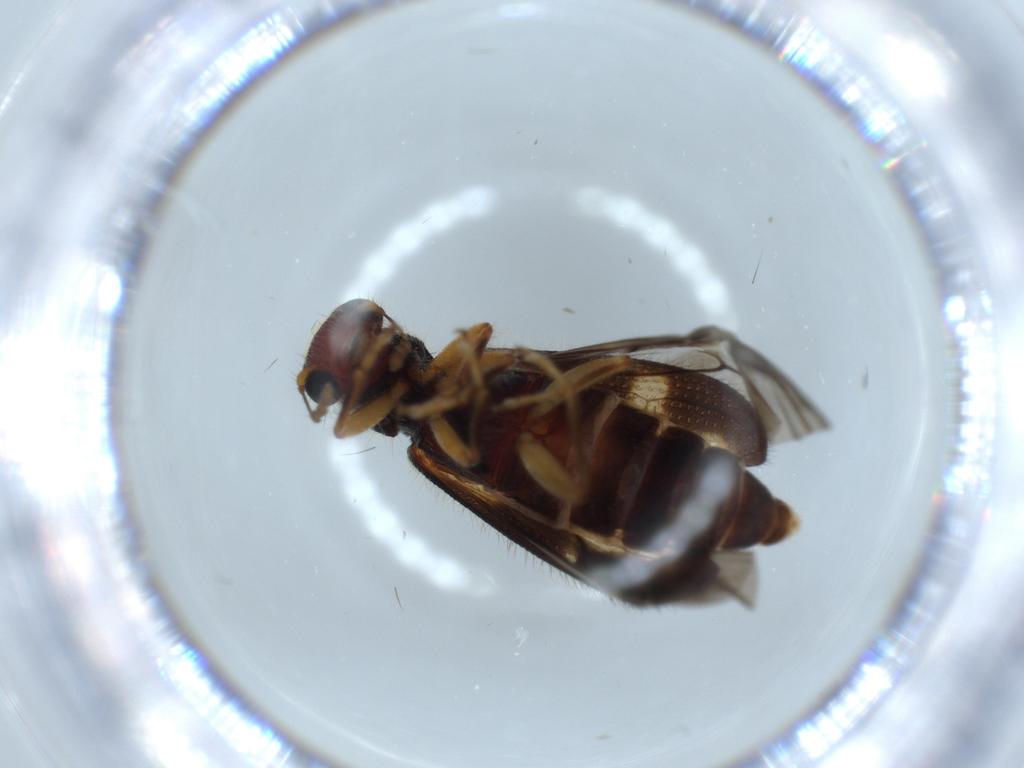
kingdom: Animalia
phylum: Arthropoda
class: Insecta
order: Coleoptera
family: Cleridae
